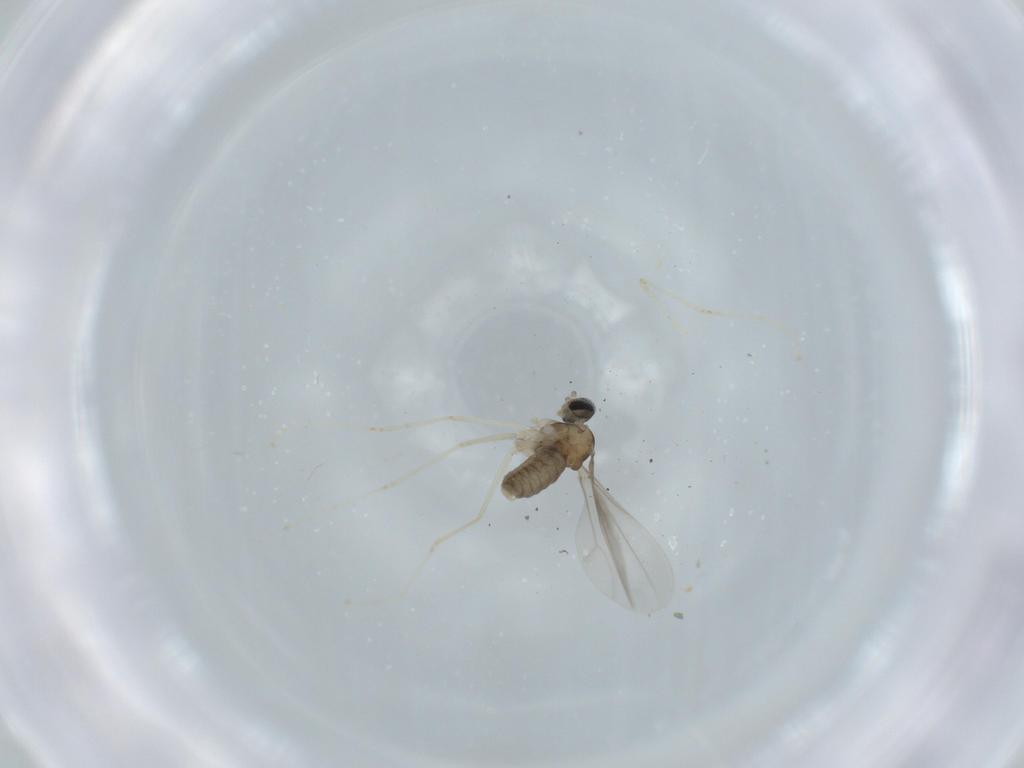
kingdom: Animalia
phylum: Arthropoda
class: Insecta
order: Diptera
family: Cecidomyiidae
